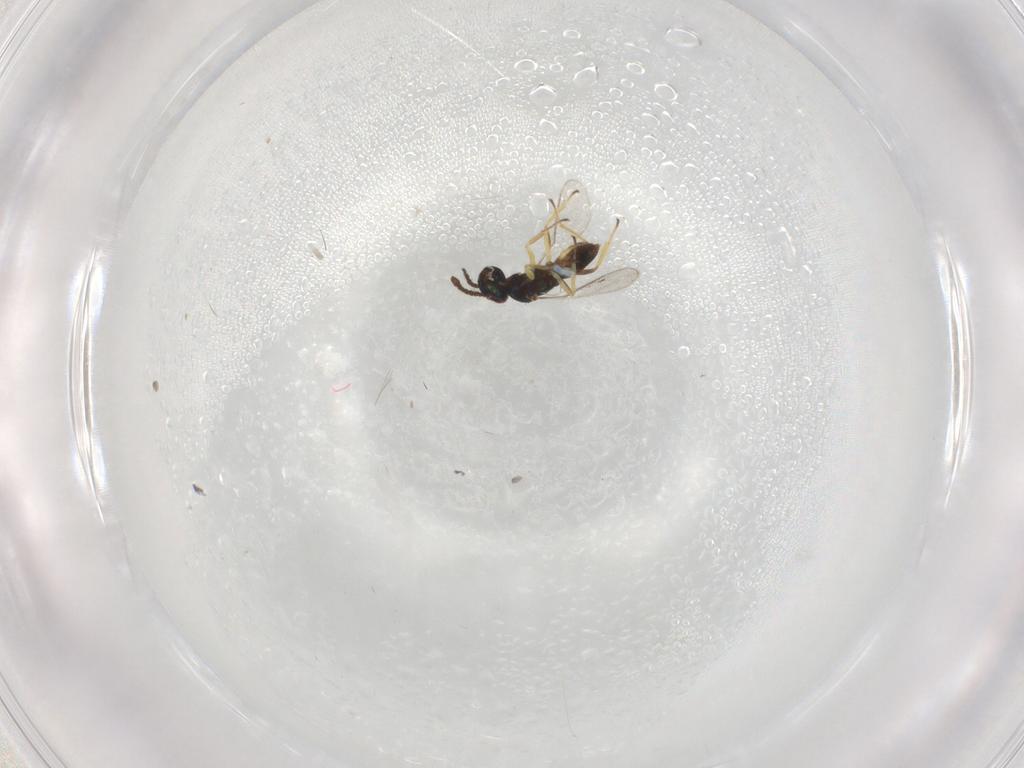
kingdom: Animalia
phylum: Arthropoda
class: Insecta
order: Hymenoptera
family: Eupelmidae
